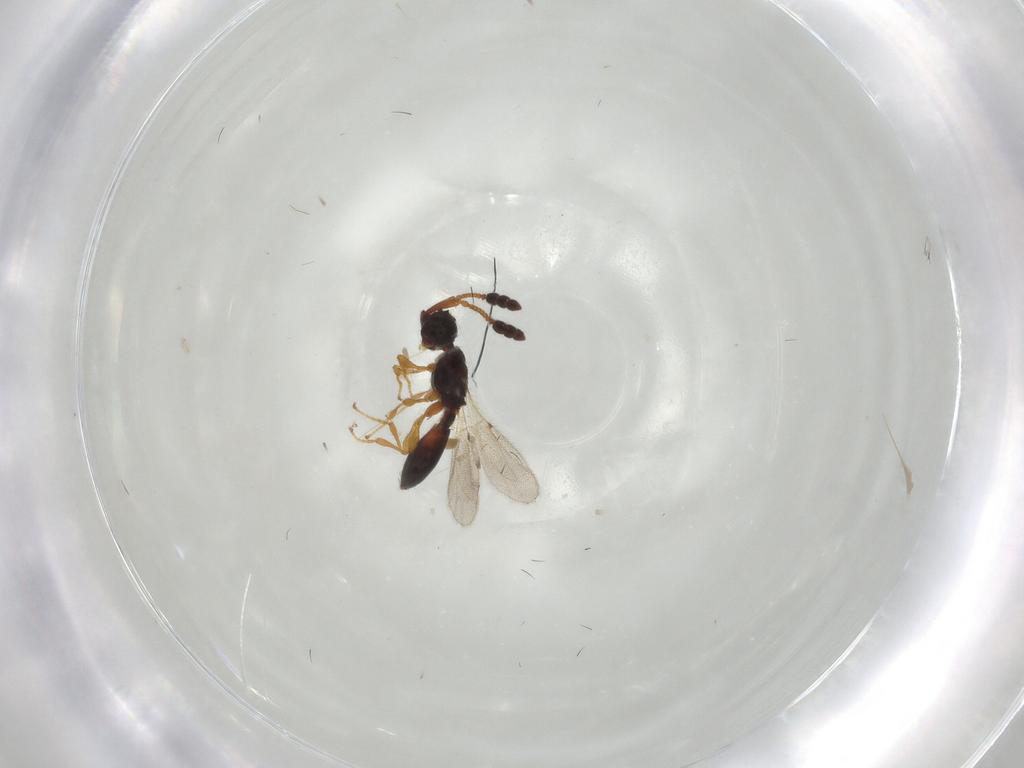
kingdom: Animalia
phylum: Arthropoda
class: Insecta
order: Hymenoptera
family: Diapriidae
